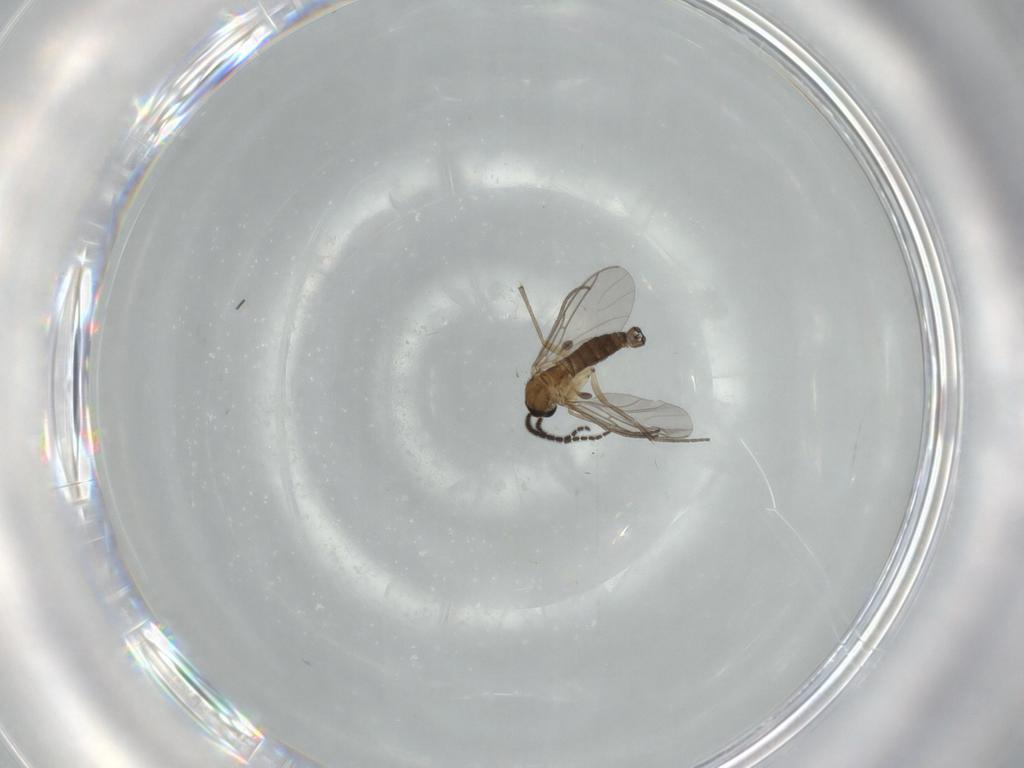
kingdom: Animalia
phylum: Arthropoda
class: Insecta
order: Diptera
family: Sciaridae
